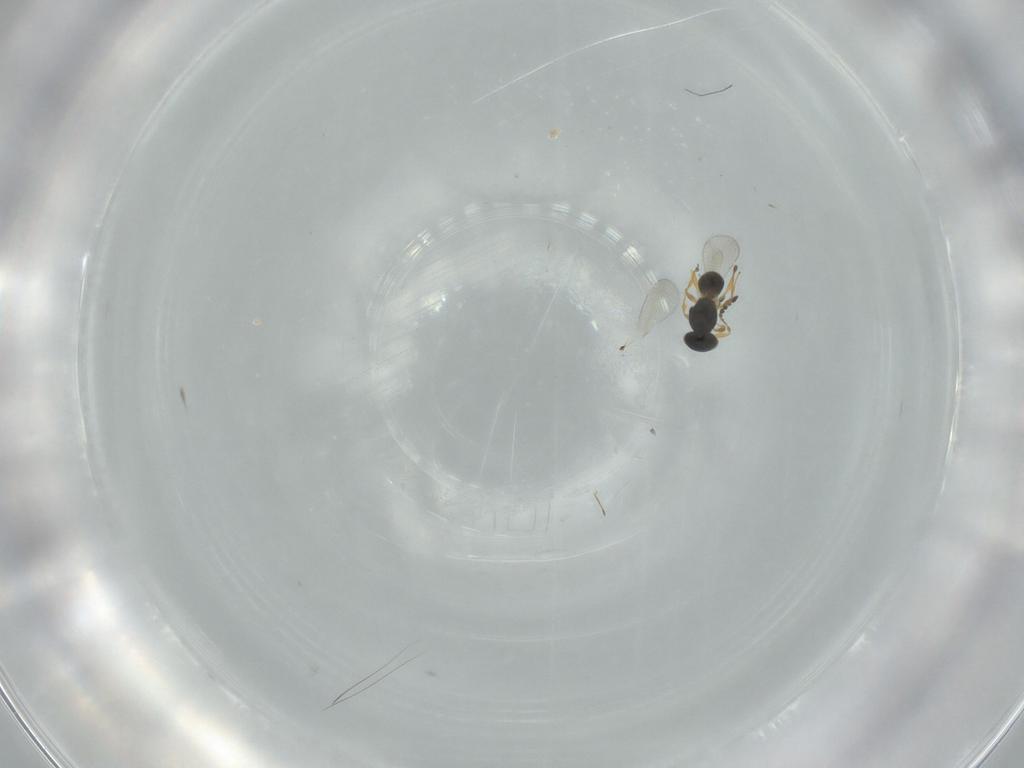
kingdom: Animalia
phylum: Arthropoda
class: Insecta
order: Hymenoptera
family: Platygastridae
